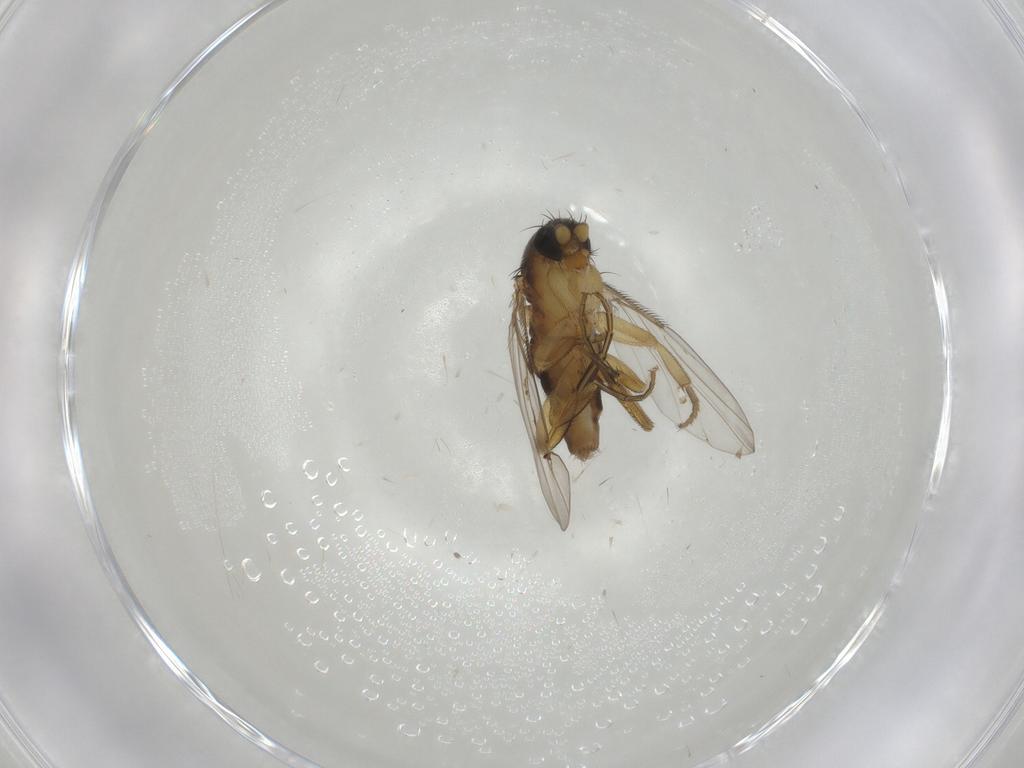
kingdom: Animalia
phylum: Arthropoda
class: Insecta
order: Diptera
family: Phoridae
